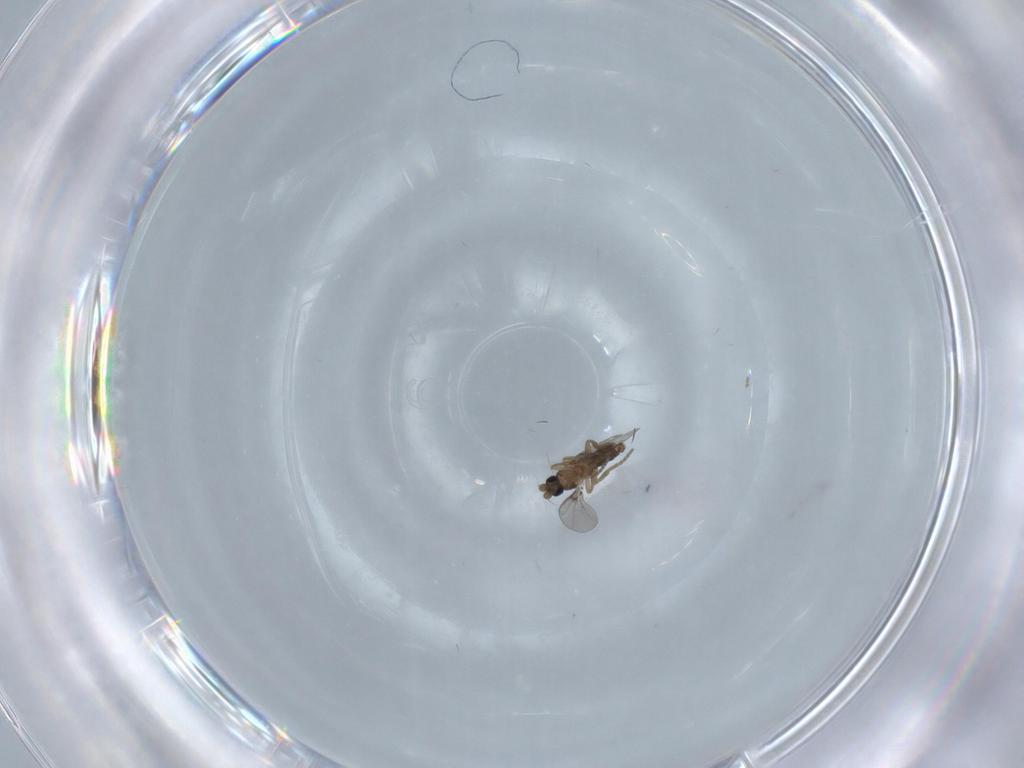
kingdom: Animalia
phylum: Arthropoda
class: Insecta
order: Diptera
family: Phoridae
